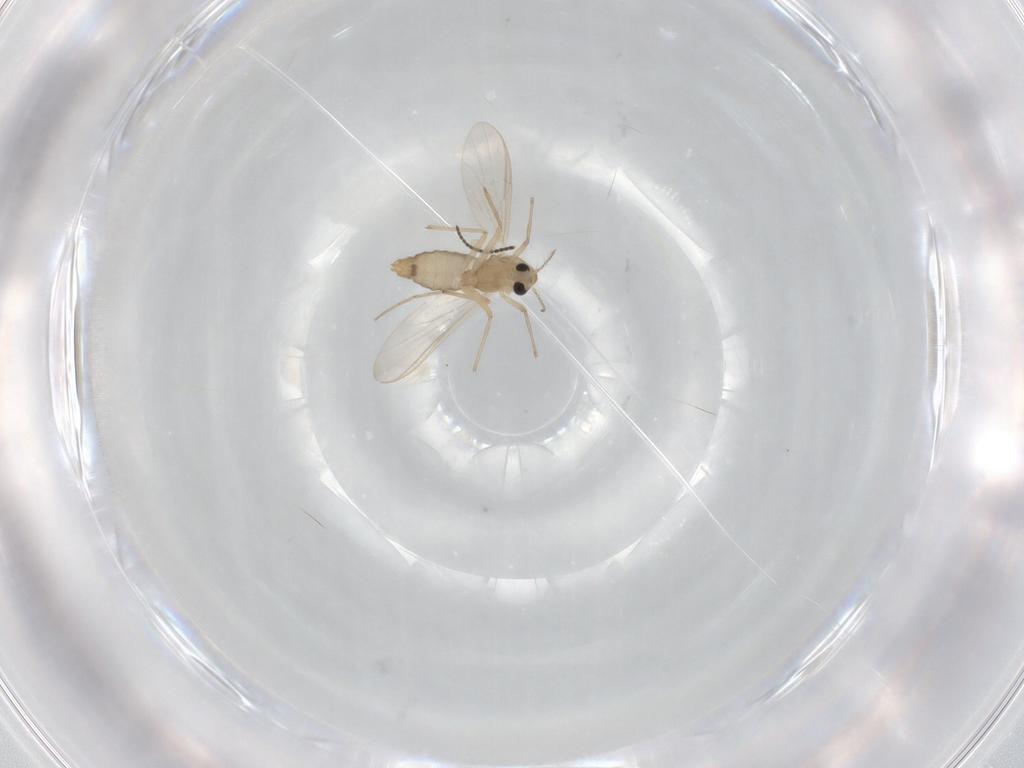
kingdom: Animalia
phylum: Arthropoda
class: Insecta
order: Diptera
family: Chironomidae
